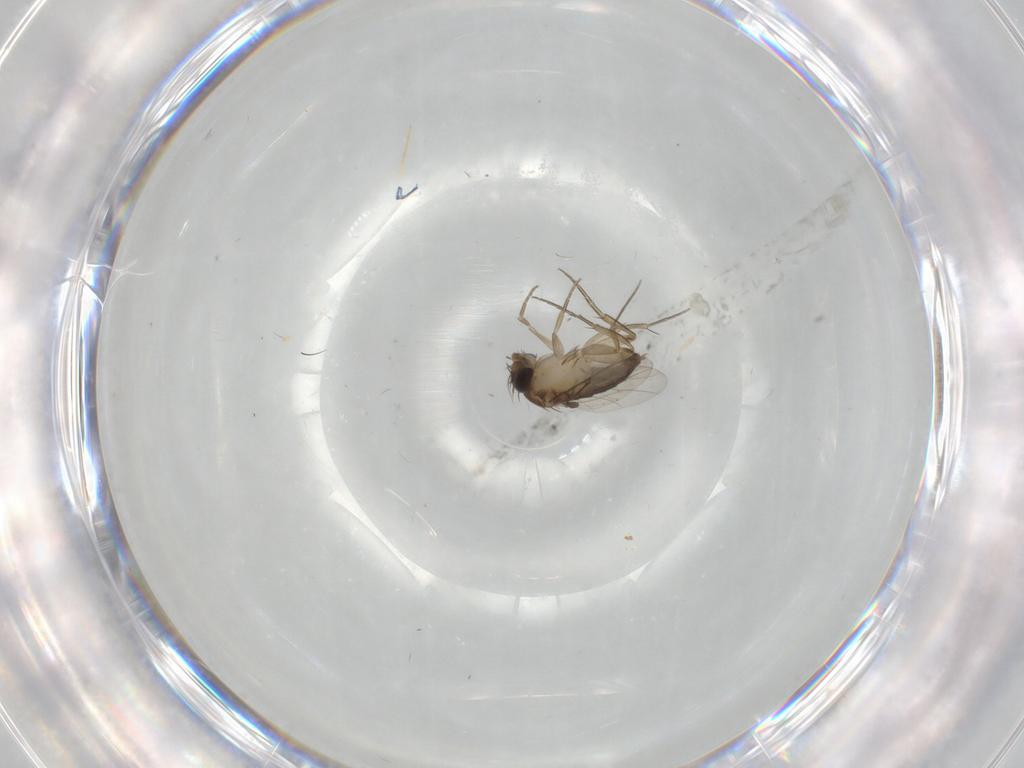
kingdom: Animalia
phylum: Arthropoda
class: Insecta
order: Diptera
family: Phoridae
